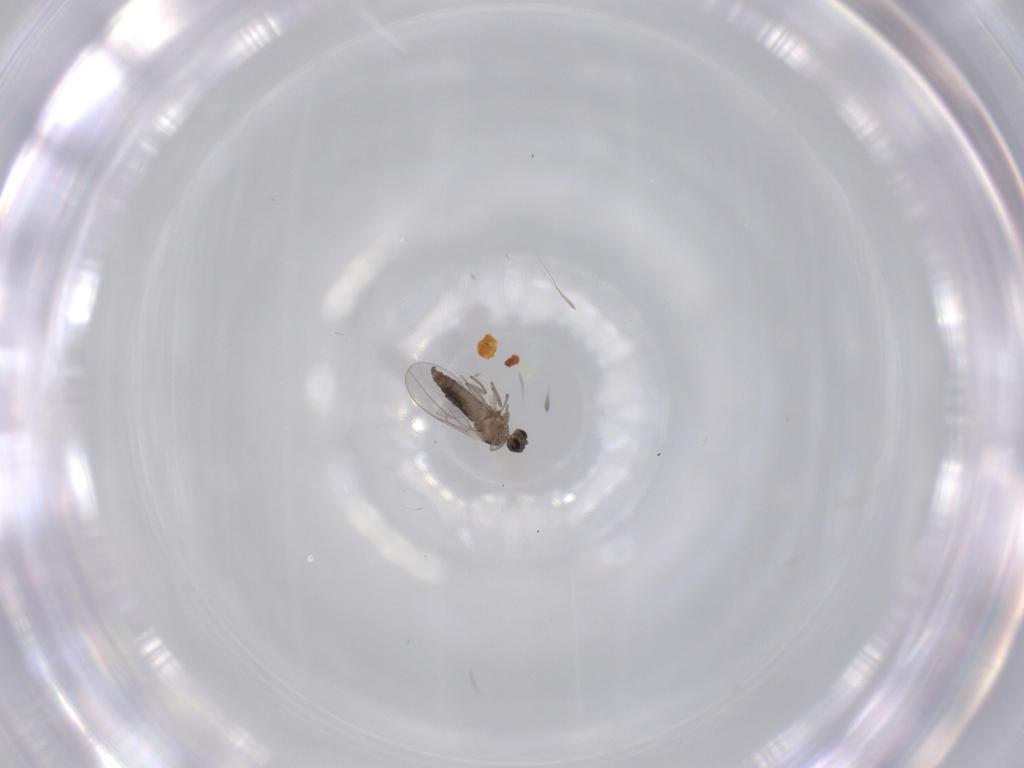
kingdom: Animalia
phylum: Arthropoda
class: Insecta
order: Diptera
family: Cecidomyiidae
